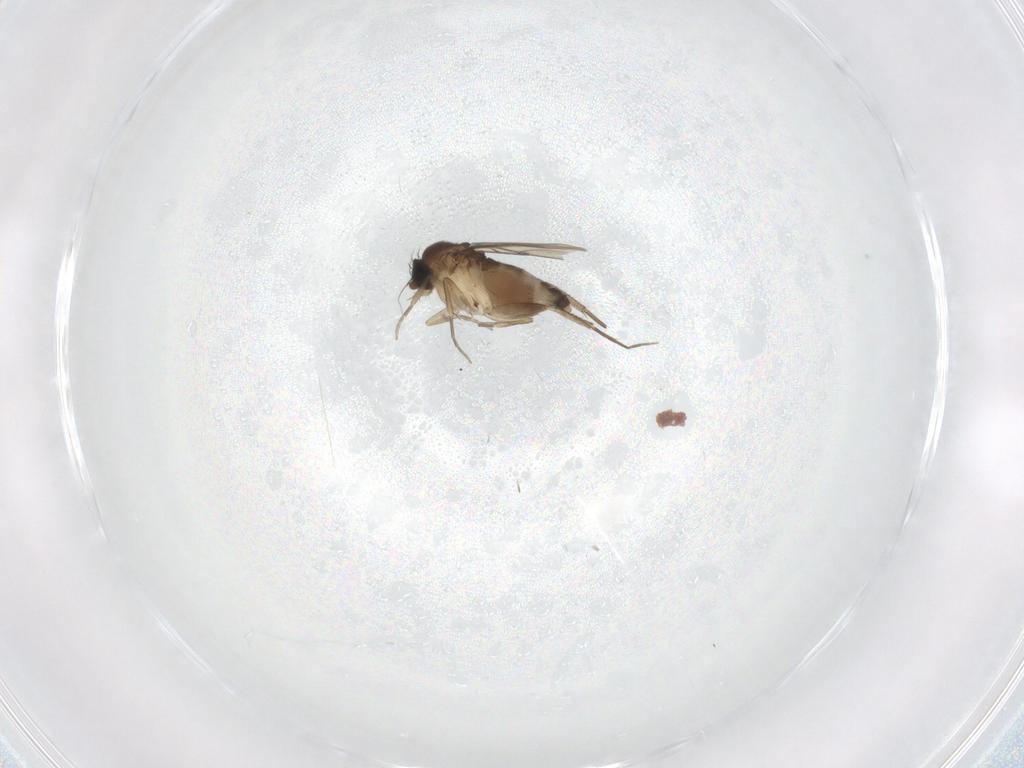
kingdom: Animalia
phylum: Arthropoda
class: Insecta
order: Diptera
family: Phoridae
